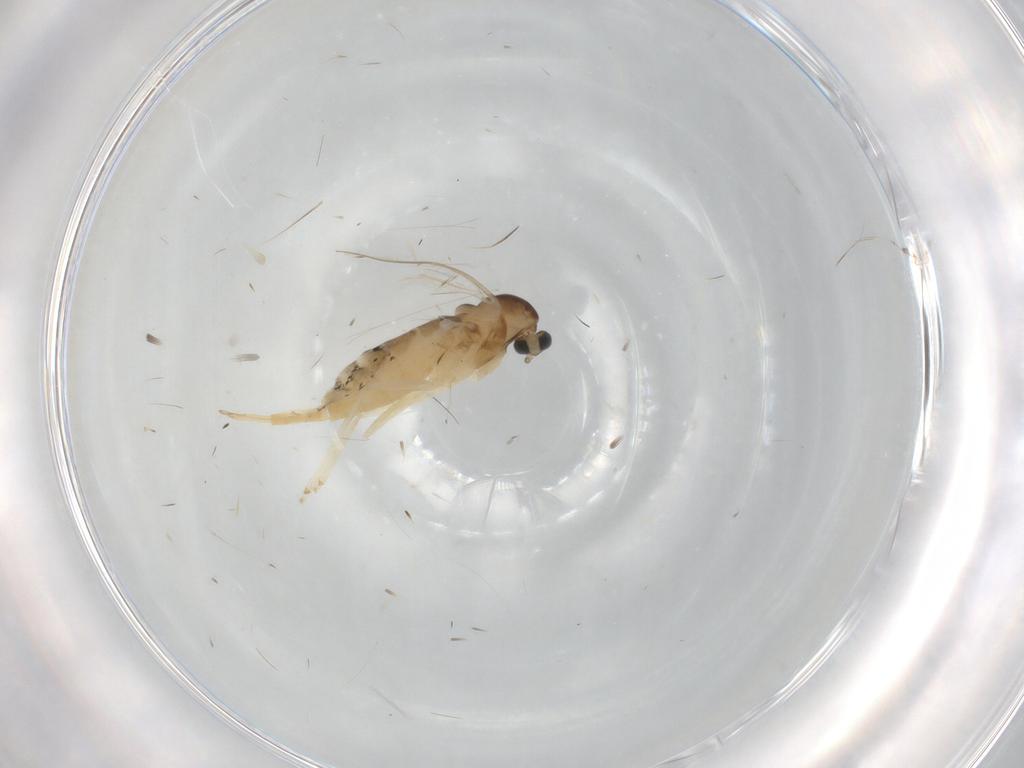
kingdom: Animalia
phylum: Arthropoda
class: Insecta
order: Diptera
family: Cecidomyiidae
